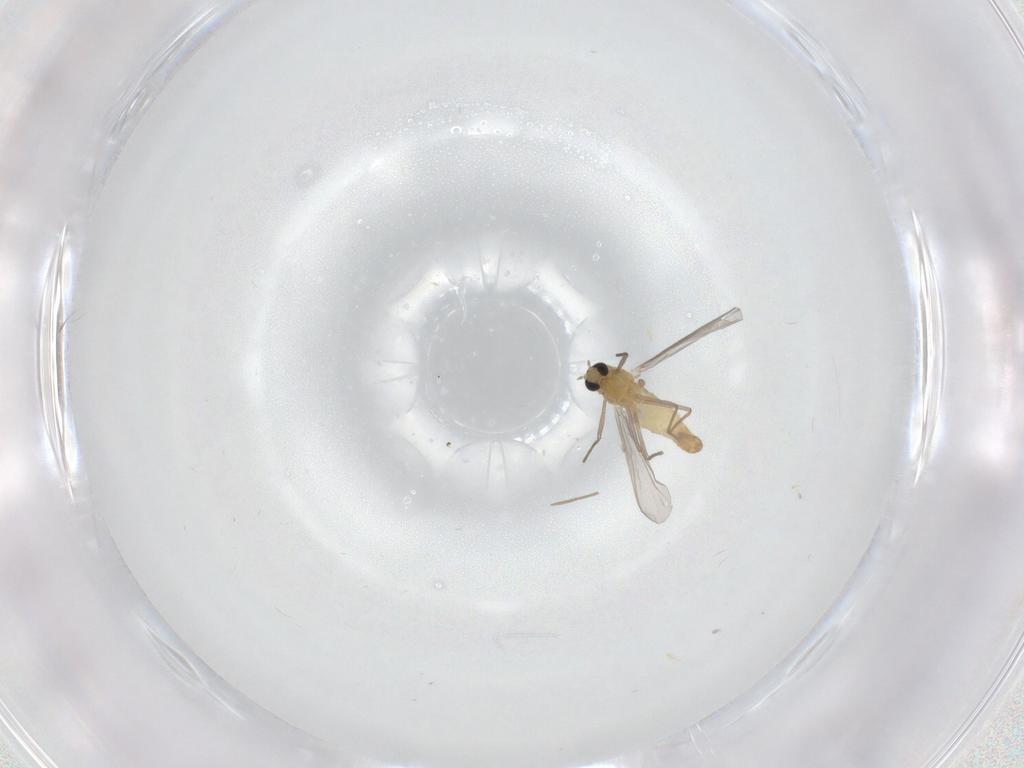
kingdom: Animalia
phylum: Arthropoda
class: Insecta
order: Diptera
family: Chironomidae
